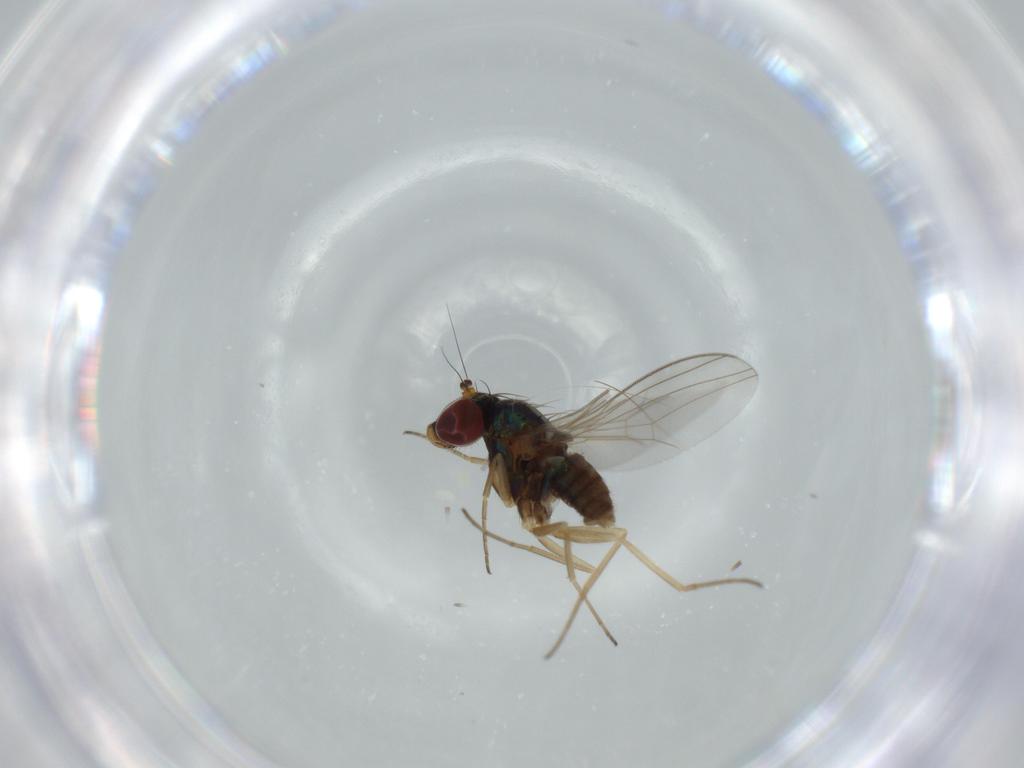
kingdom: Animalia
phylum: Arthropoda
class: Insecta
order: Diptera
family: Dolichopodidae
